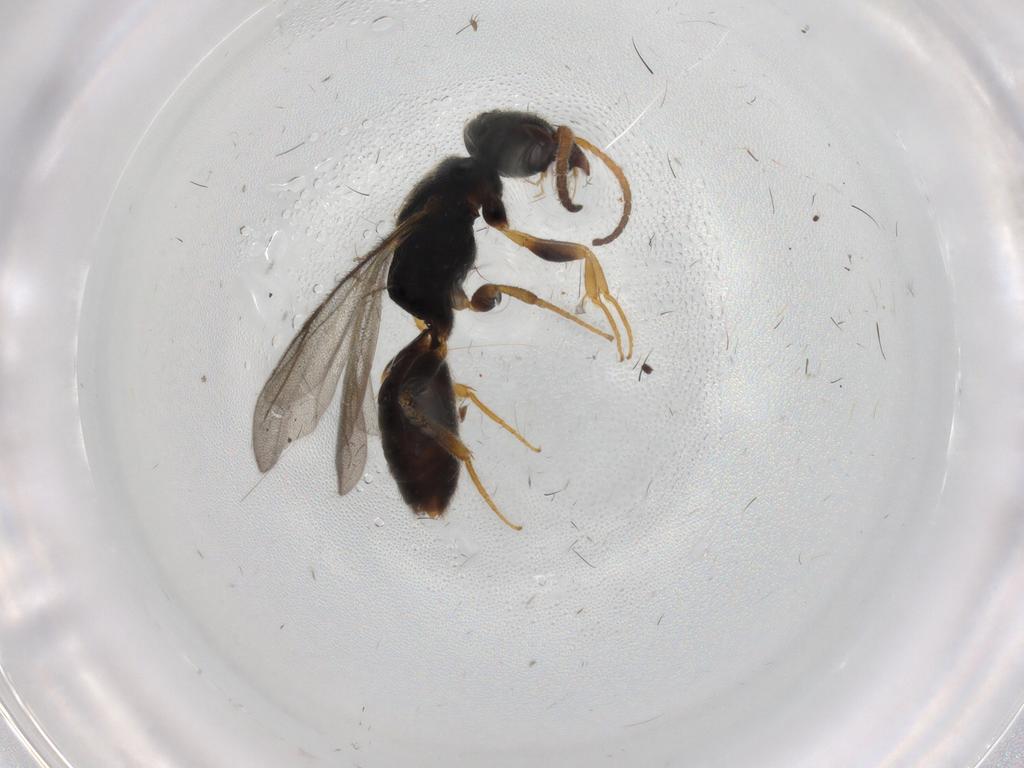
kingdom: Animalia
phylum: Arthropoda
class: Insecta
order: Hymenoptera
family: Bethylidae
